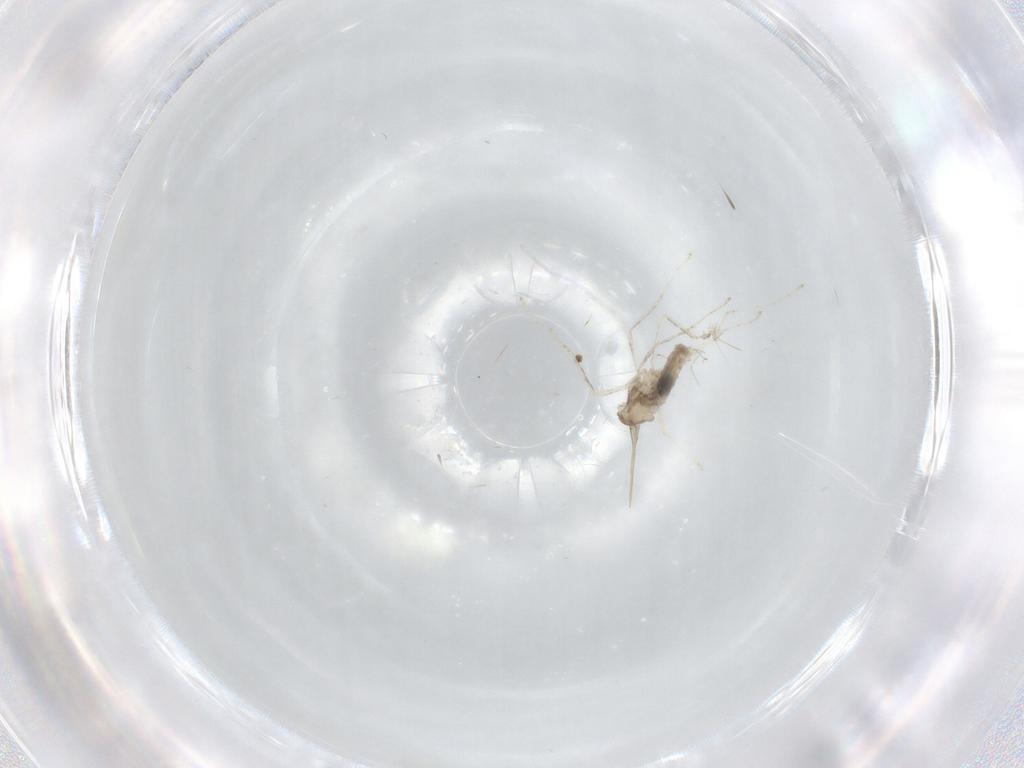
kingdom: Animalia
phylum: Arthropoda
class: Insecta
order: Diptera
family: Cecidomyiidae
